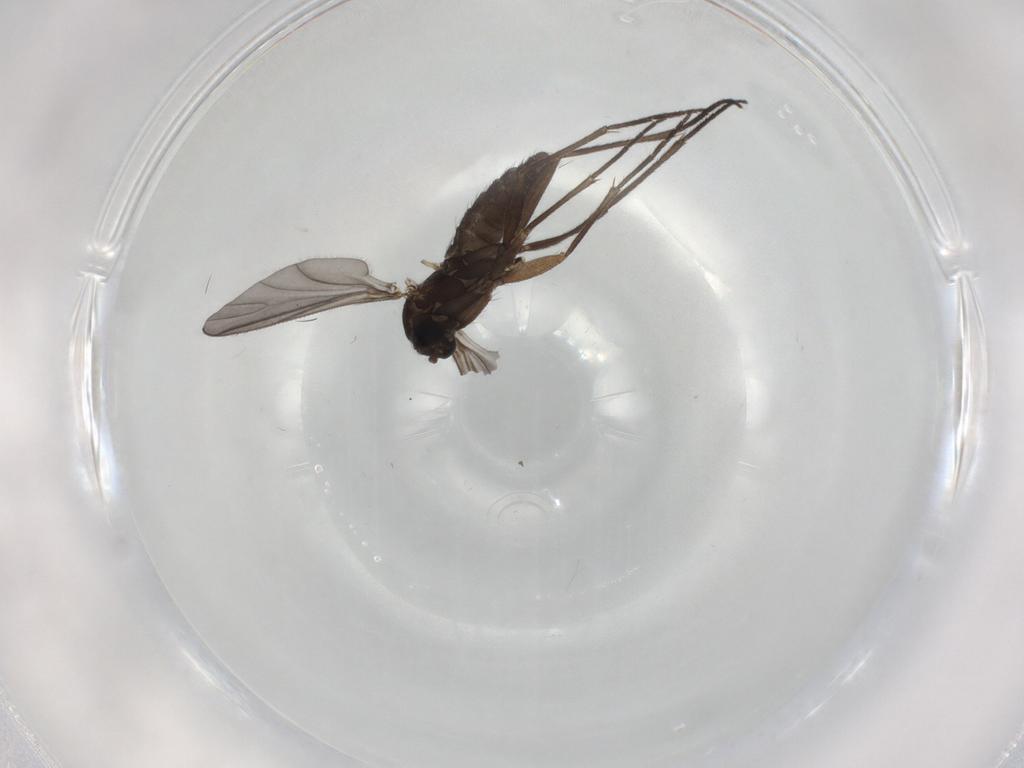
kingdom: Animalia
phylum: Arthropoda
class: Insecta
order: Diptera
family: Sciaridae
